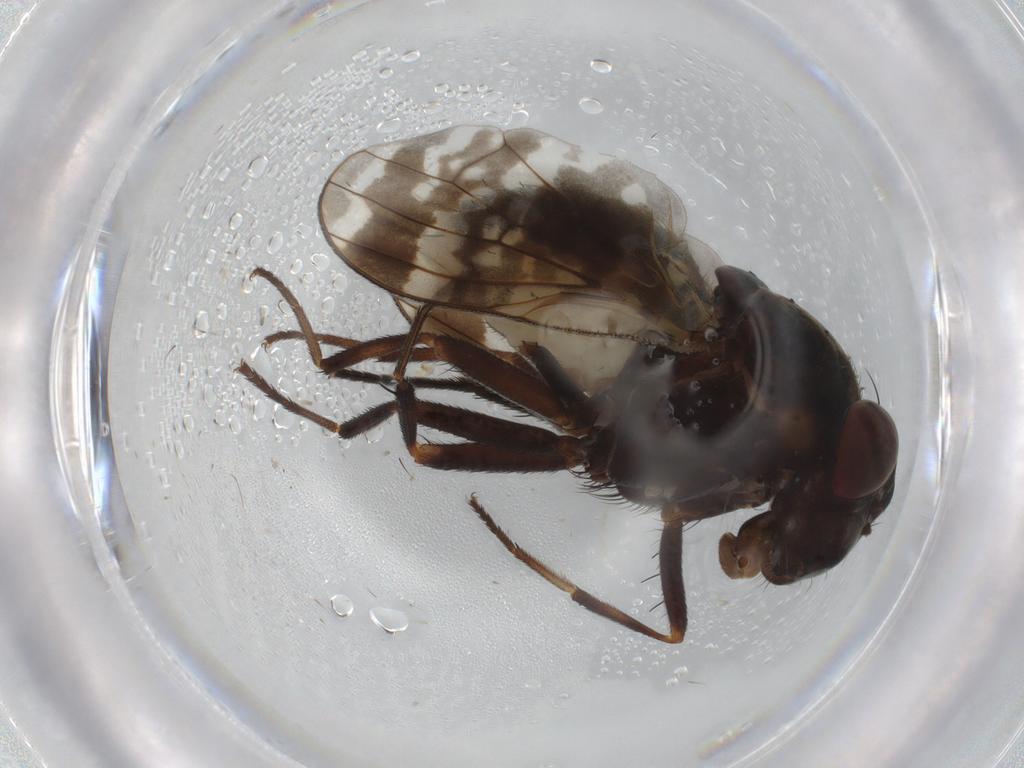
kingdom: Animalia
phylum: Arthropoda
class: Insecta
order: Diptera
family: Lauxaniidae
